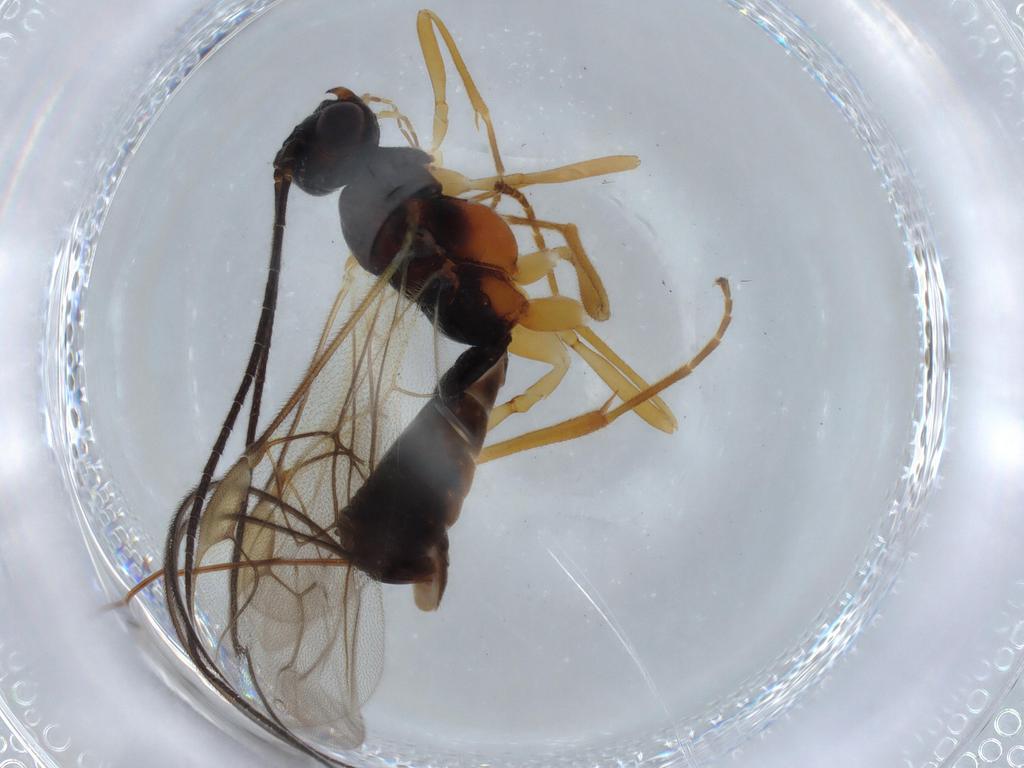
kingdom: Animalia
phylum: Arthropoda
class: Insecta
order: Hymenoptera
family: Braconidae
